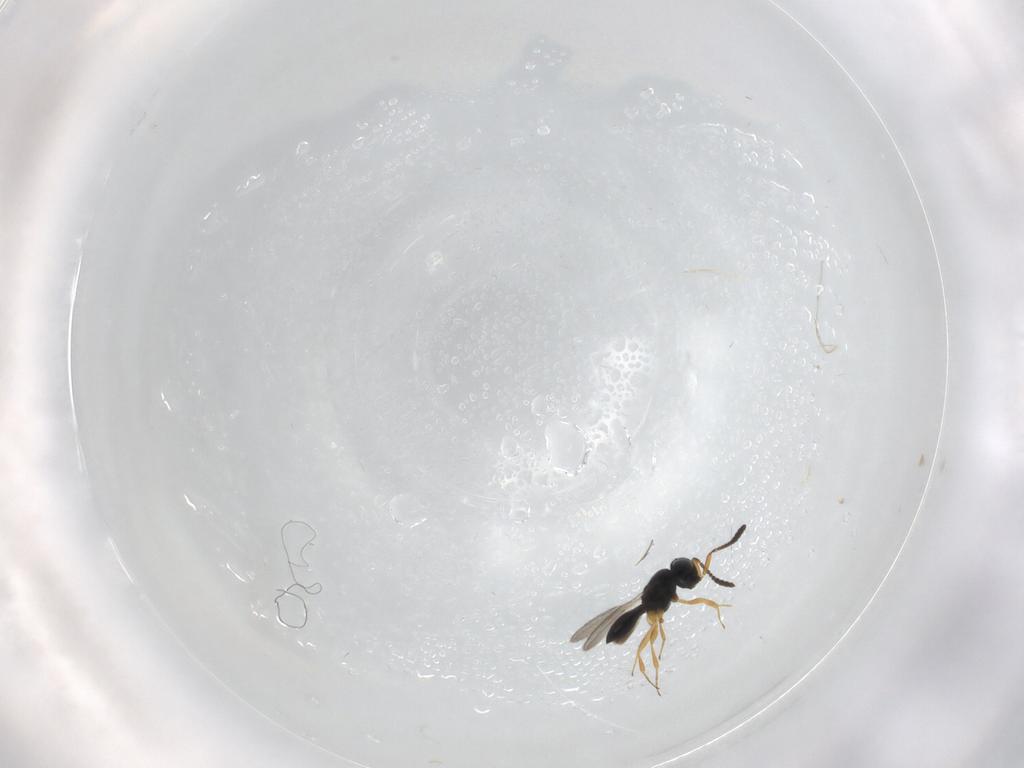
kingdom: Animalia
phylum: Arthropoda
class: Insecta
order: Hymenoptera
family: Scelionidae
